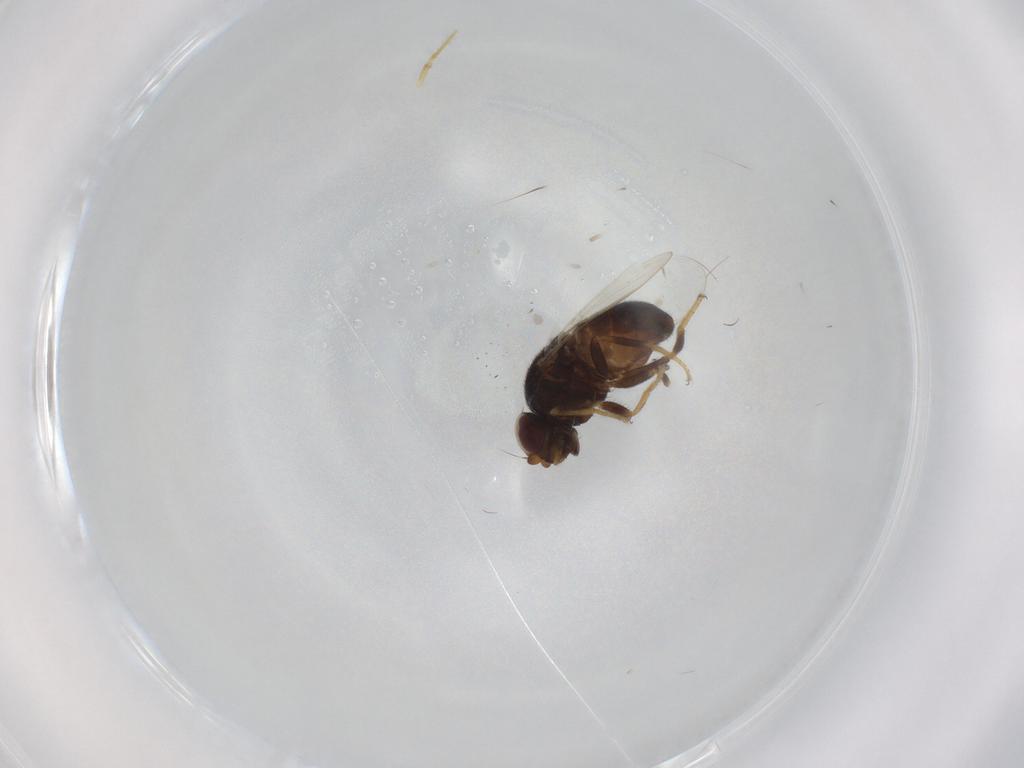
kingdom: Animalia
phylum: Arthropoda
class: Insecta
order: Diptera
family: Chloropidae
